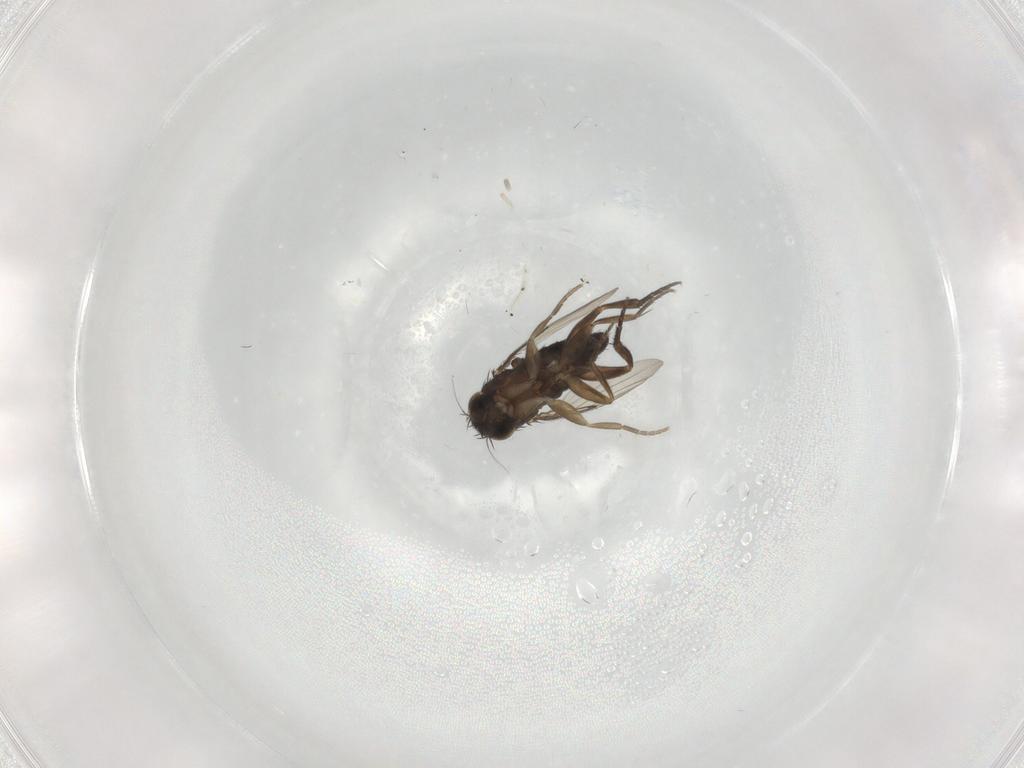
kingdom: Animalia
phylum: Arthropoda
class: Insecta
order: Diptera
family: Phoridae
